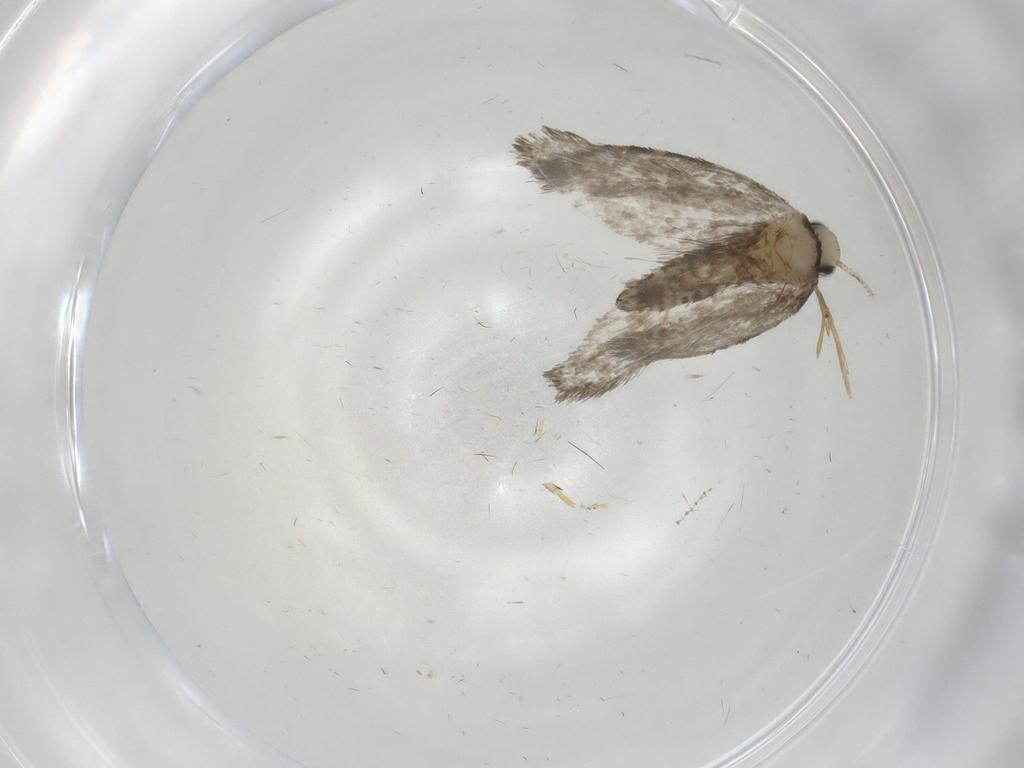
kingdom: Animalia
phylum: Arthropoda
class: Insecta
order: Lepidoptera
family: Psychidae
